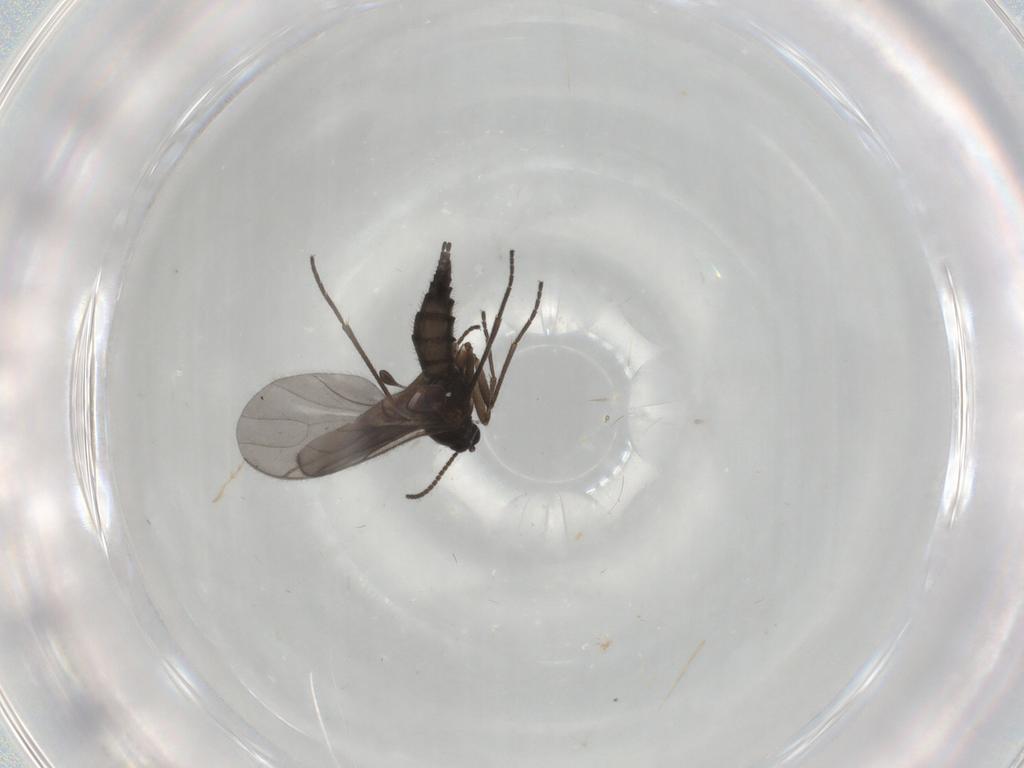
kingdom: Animalia
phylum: Arthropoda
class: Insecta
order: Diptera
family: Sciaridae
